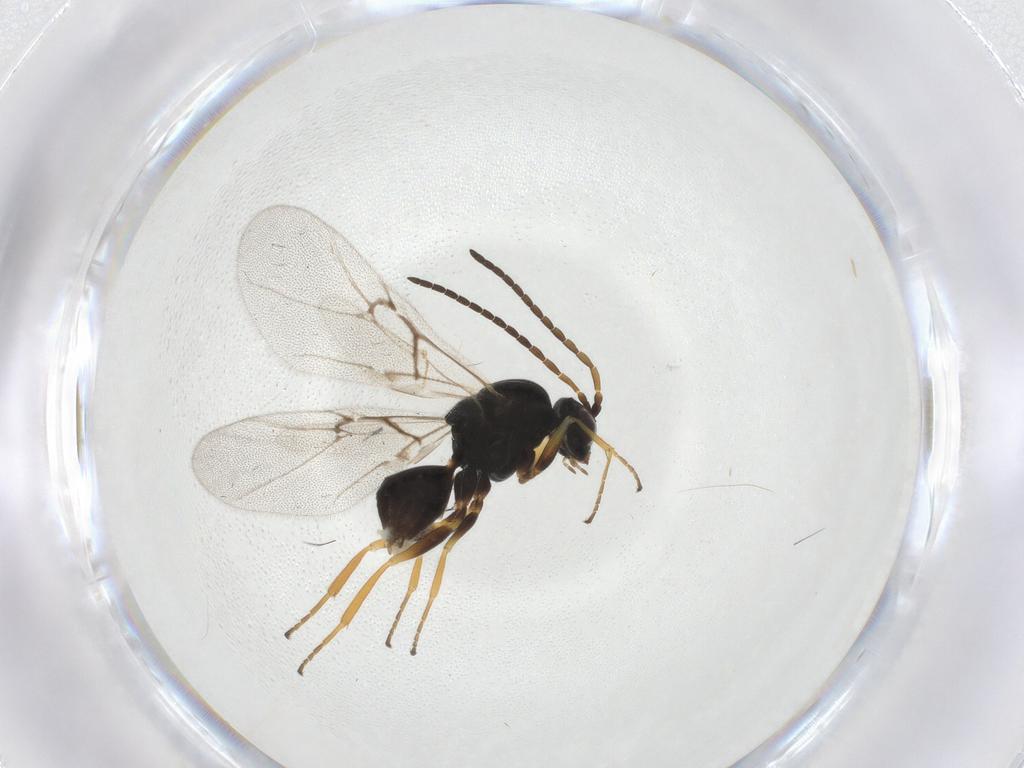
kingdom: Animalia
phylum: Arthropoda
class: Insecta
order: Hymenoptera
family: Cynipidae
